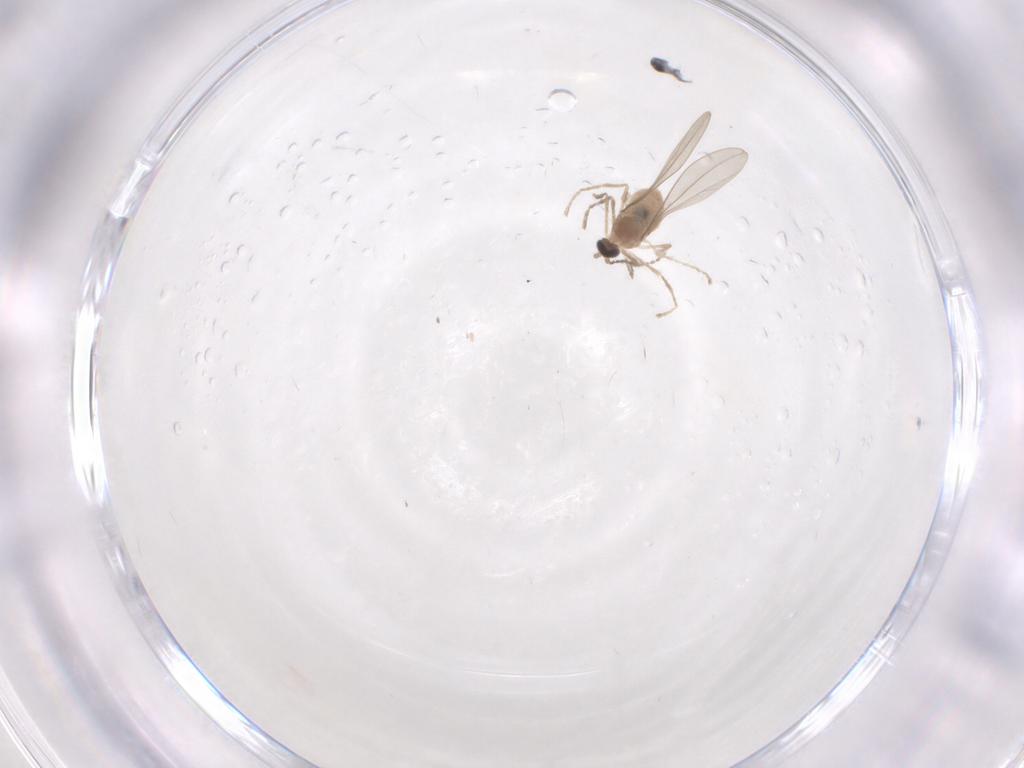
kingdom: Animalia
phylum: Arthropoda
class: Insecta
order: Diptera
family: Cecidomyiidae
